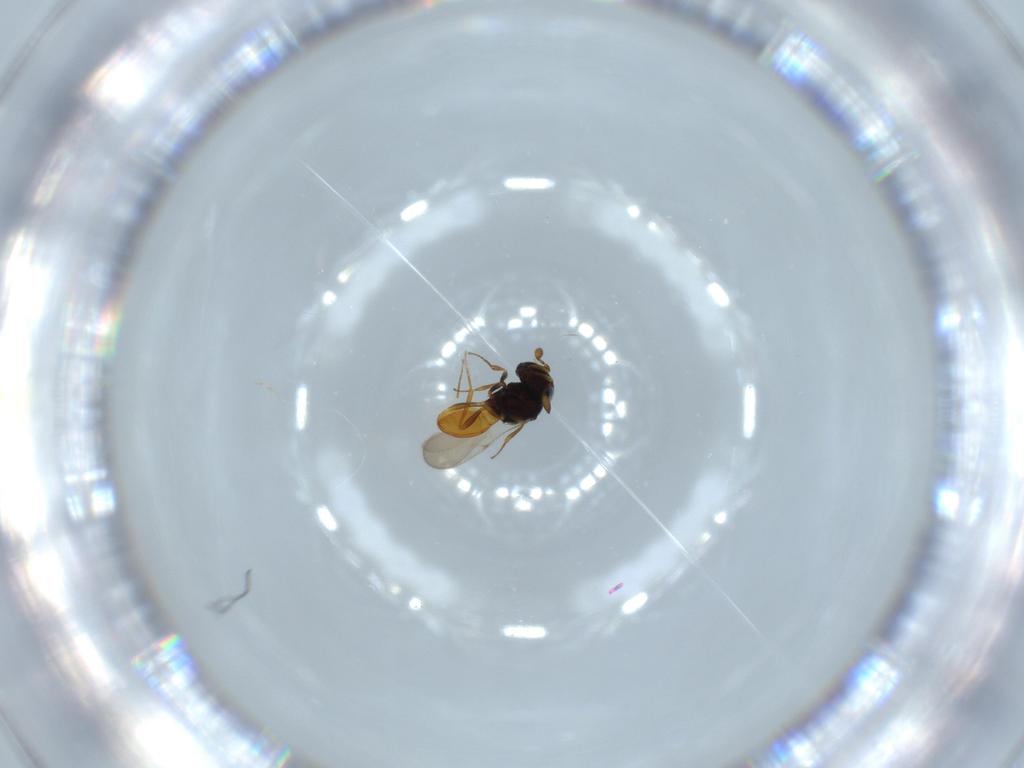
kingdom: Animalia
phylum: Arthropoda
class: Insecta
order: Hymenoptera
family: Scelionidae
